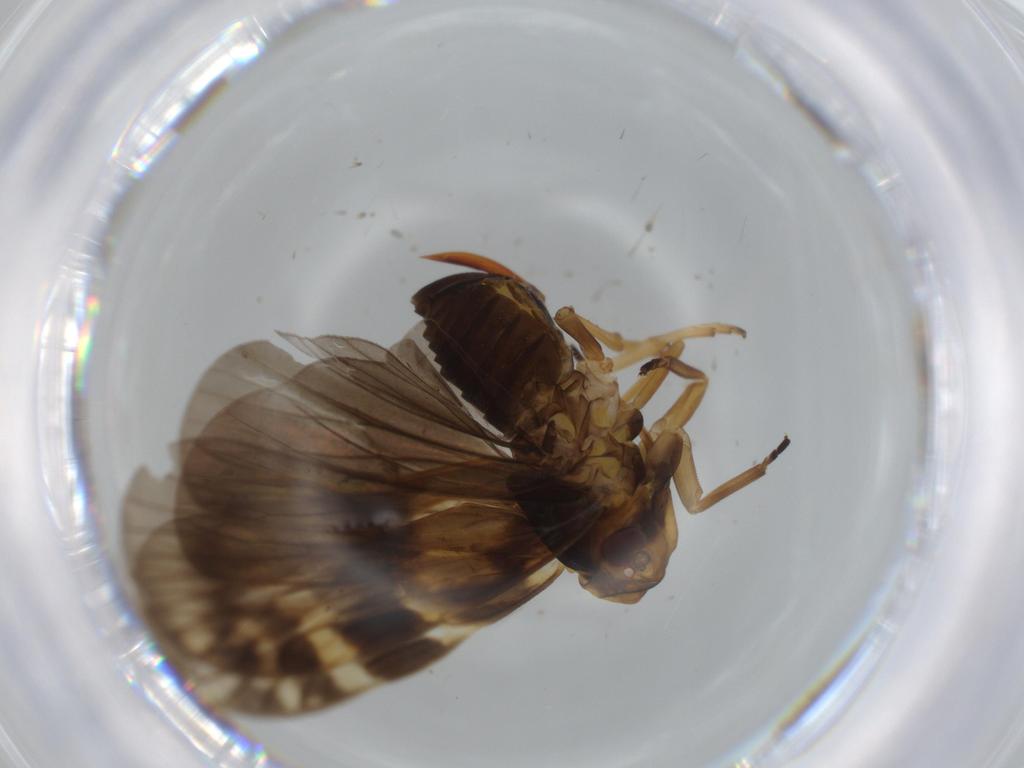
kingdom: Animalia
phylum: Arthropoda
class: Insecta
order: Hemiptera
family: Cixiidae
